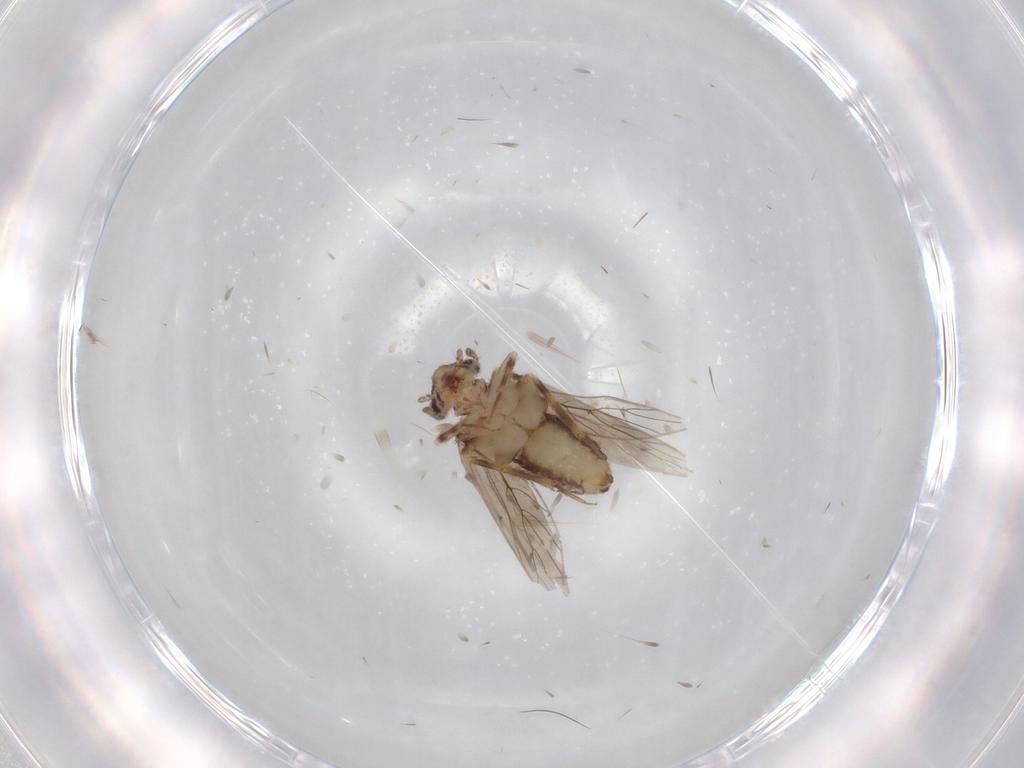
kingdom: Animalia
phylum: Arthropoda
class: Insecta
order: Psocodea
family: Lepidopsocidae
